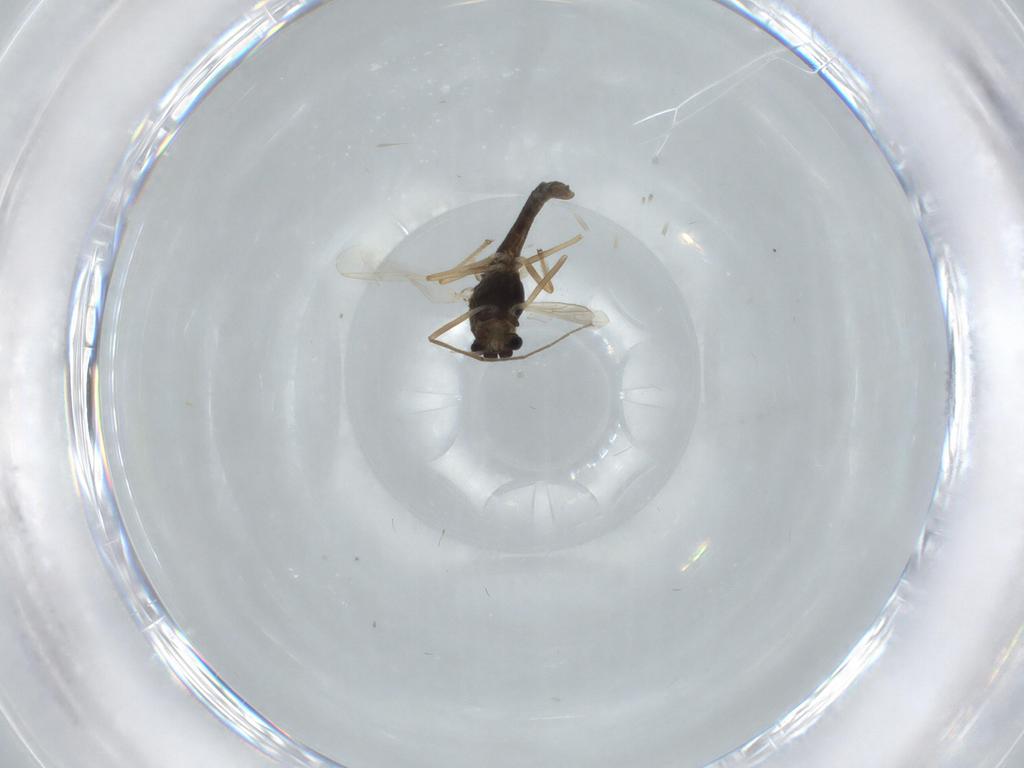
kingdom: Animalia
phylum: Arthropoda
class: Insecta
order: Diptera
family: Chironomidae
